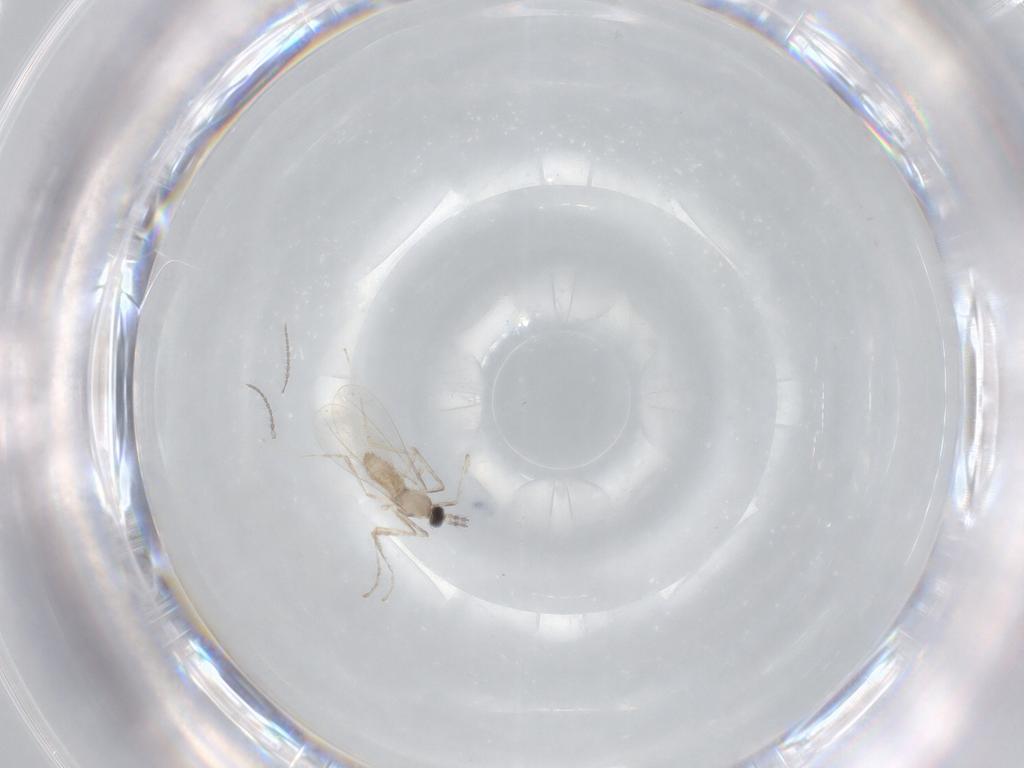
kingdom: Animalia
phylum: Arthropoda
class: Insecta
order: Diptera
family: Cecidomyiidae
